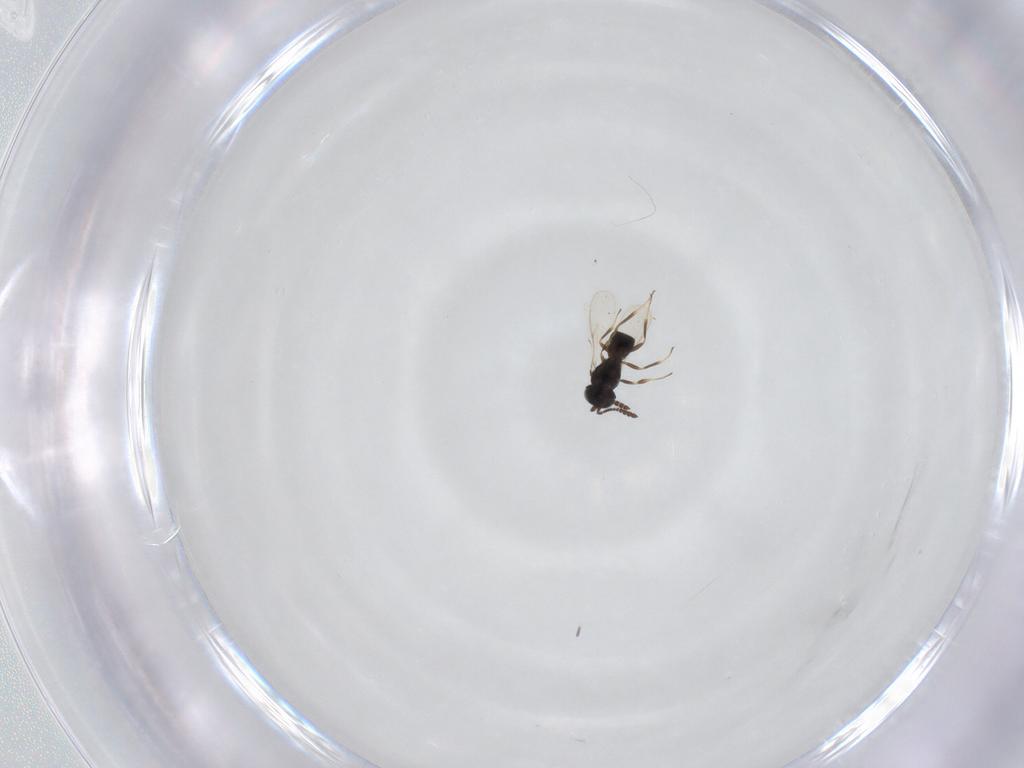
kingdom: Animalia
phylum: Arthropoda
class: Insecta
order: Hymenoptera
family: Scelionidae
